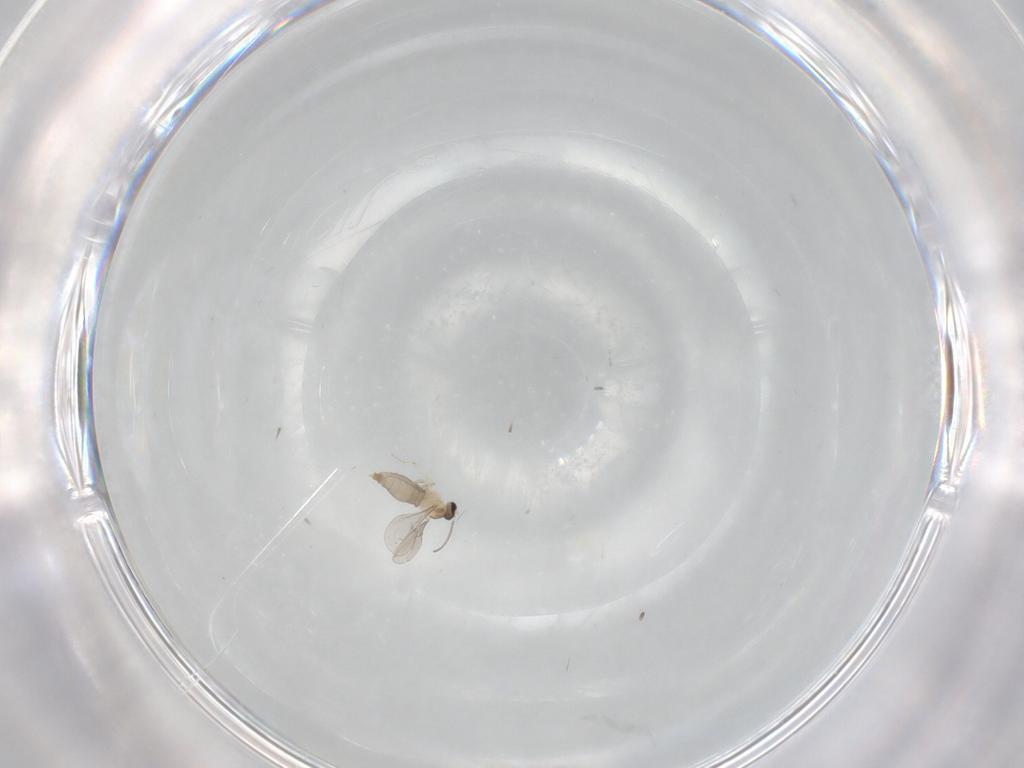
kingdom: Animalia
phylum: Arthropoda
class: Insecta
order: Diptera
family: Cecidomyiidae
